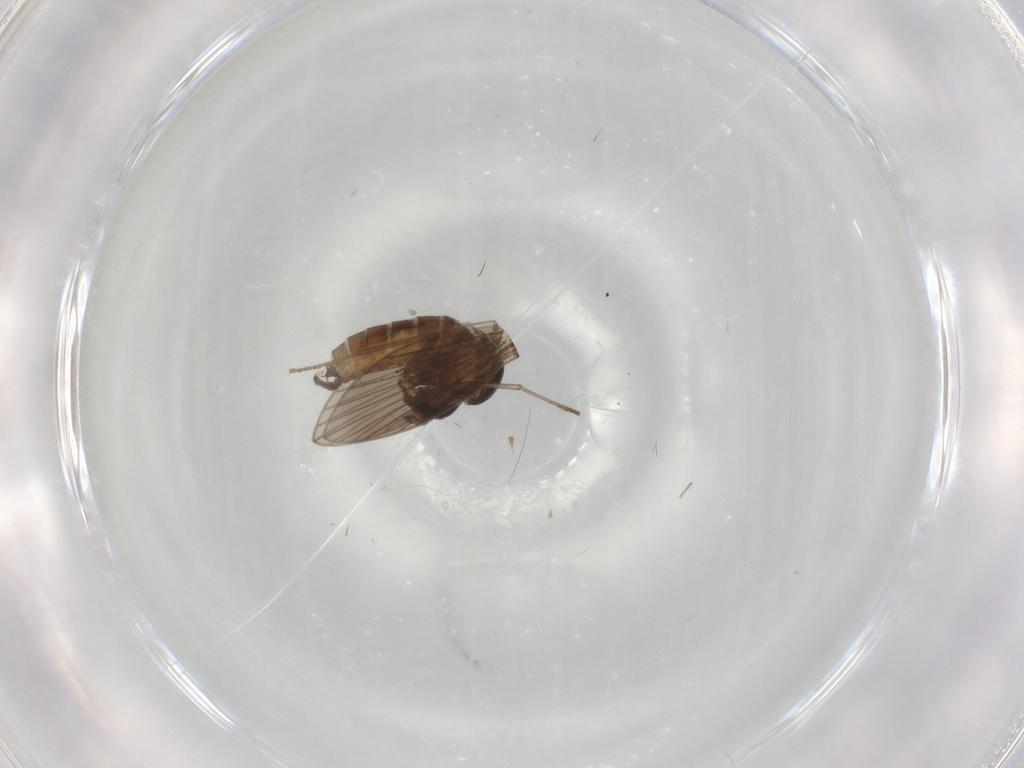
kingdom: Animalia
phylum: Arthropoda
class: Insecta
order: Diptera
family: Psychodidae
